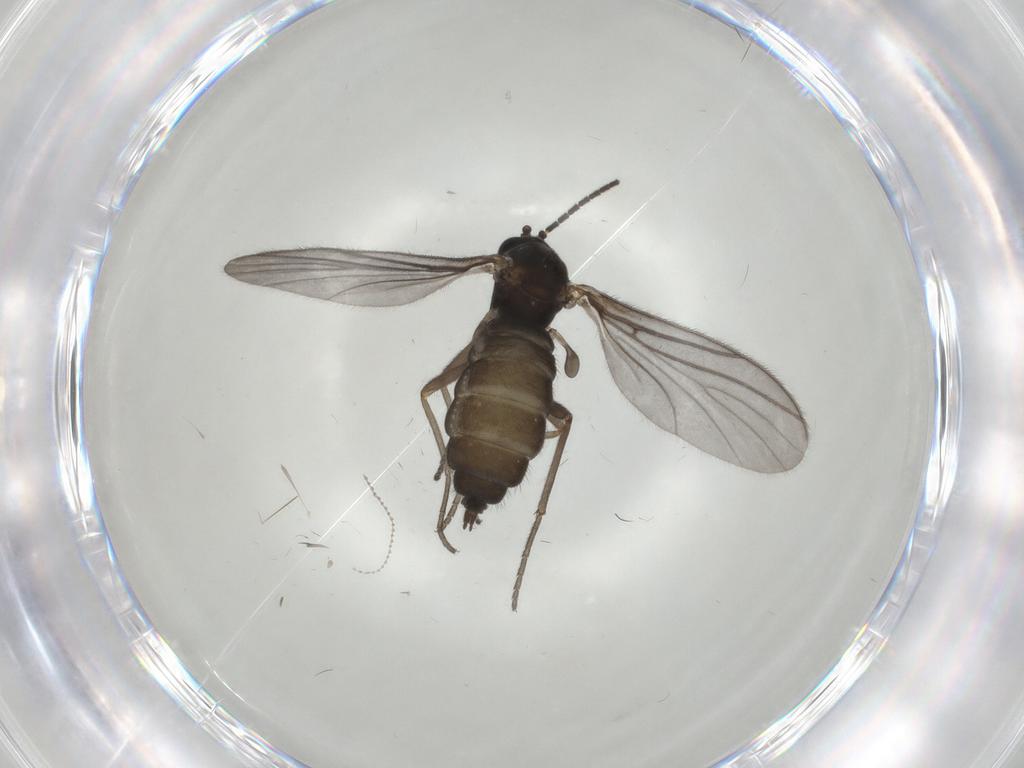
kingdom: Animalia
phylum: Arthropoda
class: Insecta
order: Diptera
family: Sciaridae
